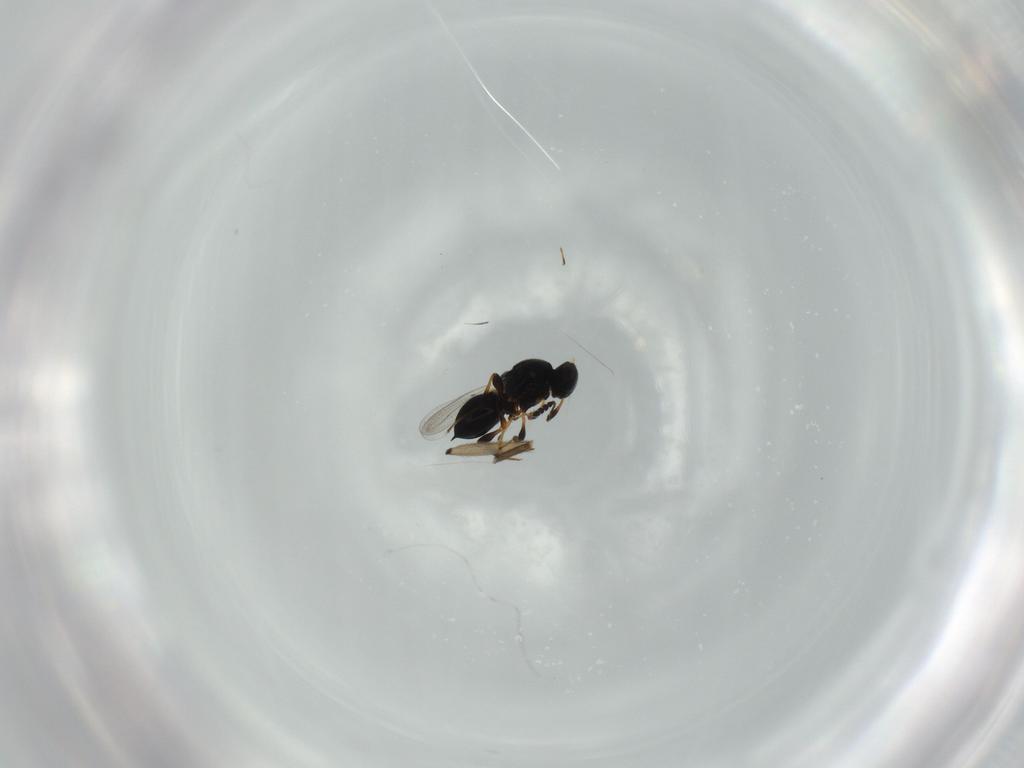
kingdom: Animalia
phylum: Arthropoda
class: Insecta
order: Hymenoptera
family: Platygastridae
